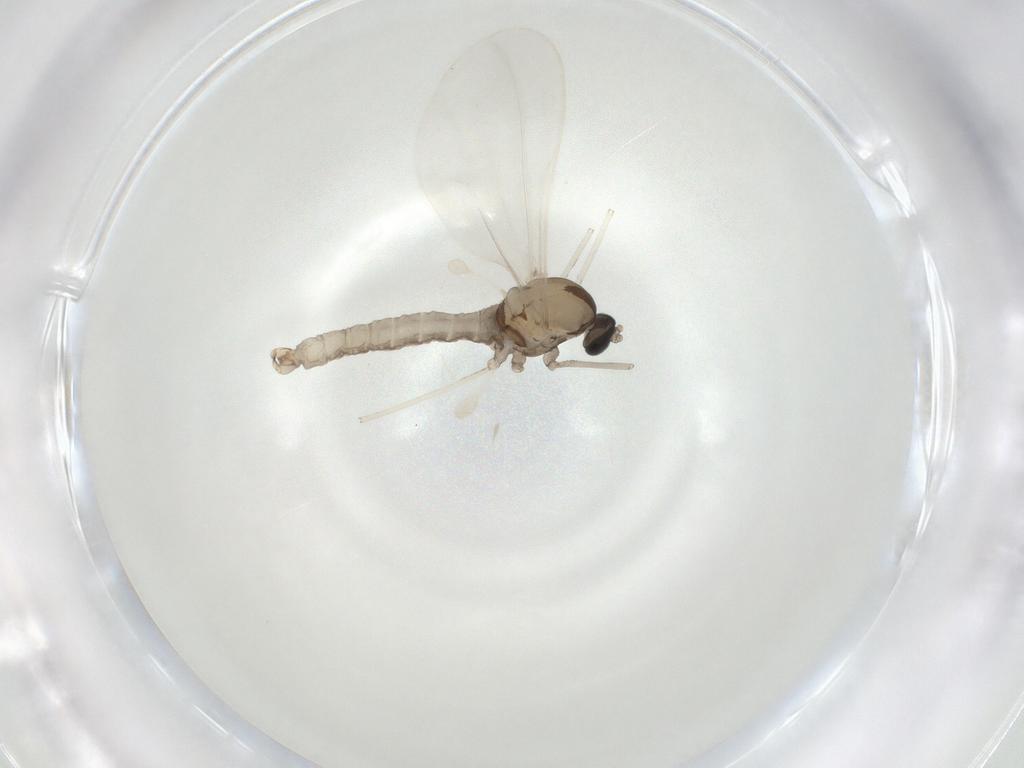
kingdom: Animalia
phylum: Arthropoda
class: Insecta
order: Diptera
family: Cecidomyiidae
